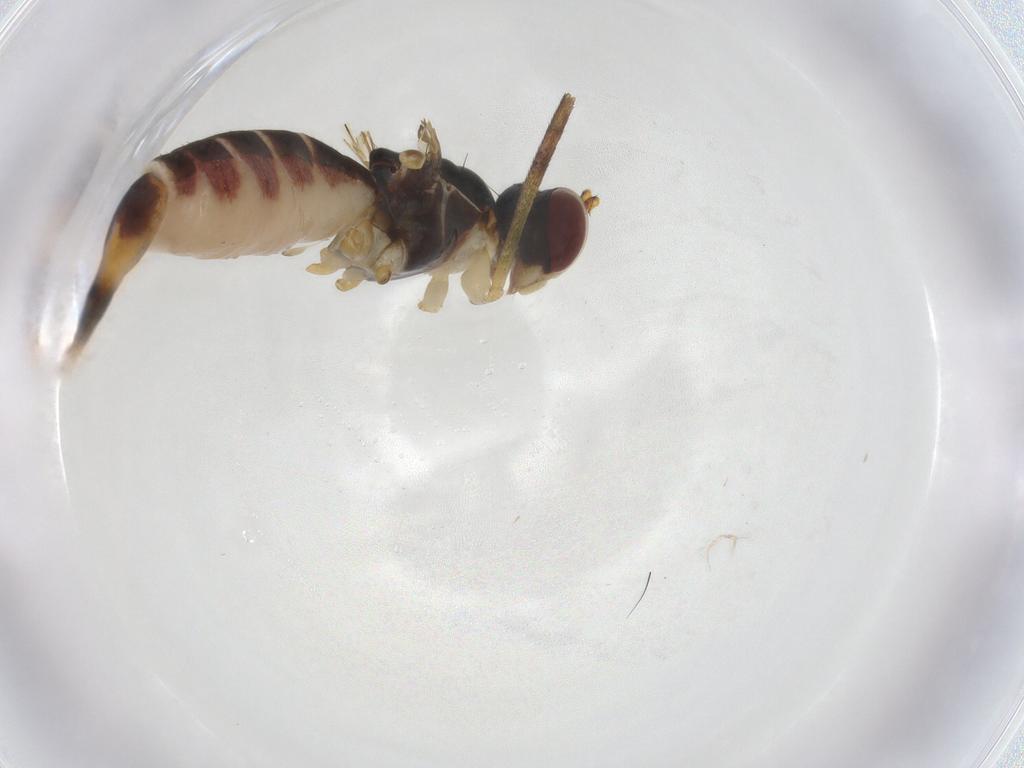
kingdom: Animalia
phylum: Arthropoda
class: Insecta
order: Diptera
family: Micropezidae
